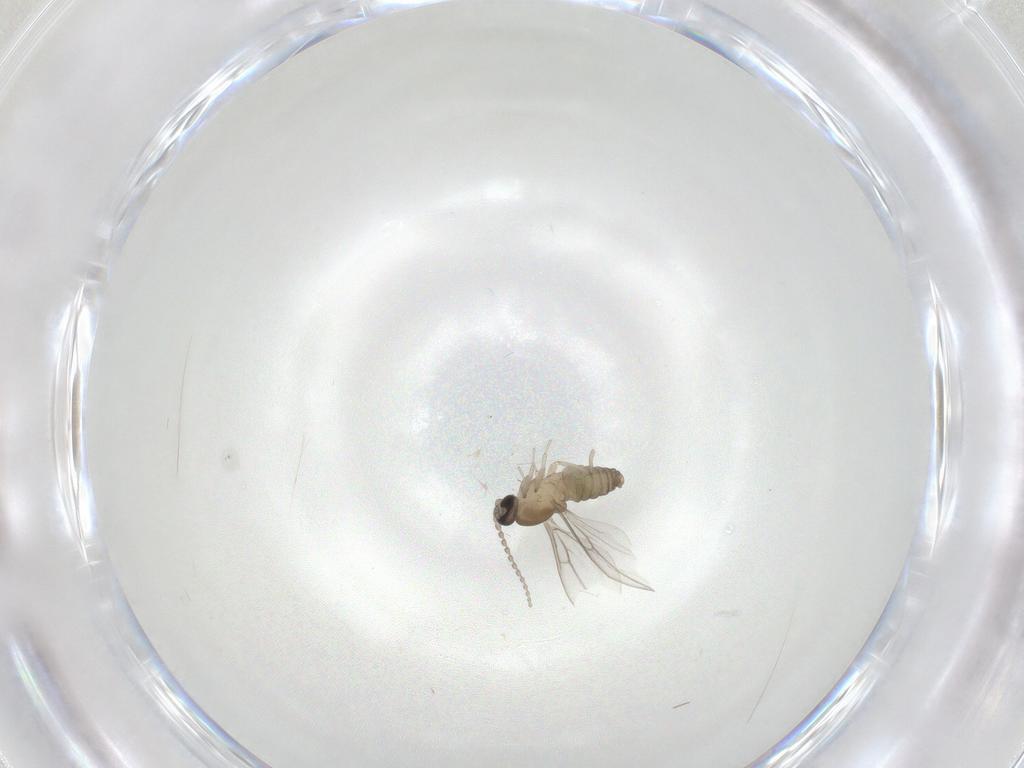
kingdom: Animalia
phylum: Arthropoda
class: Insecta
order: Diptera
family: Cecidomyiidae
